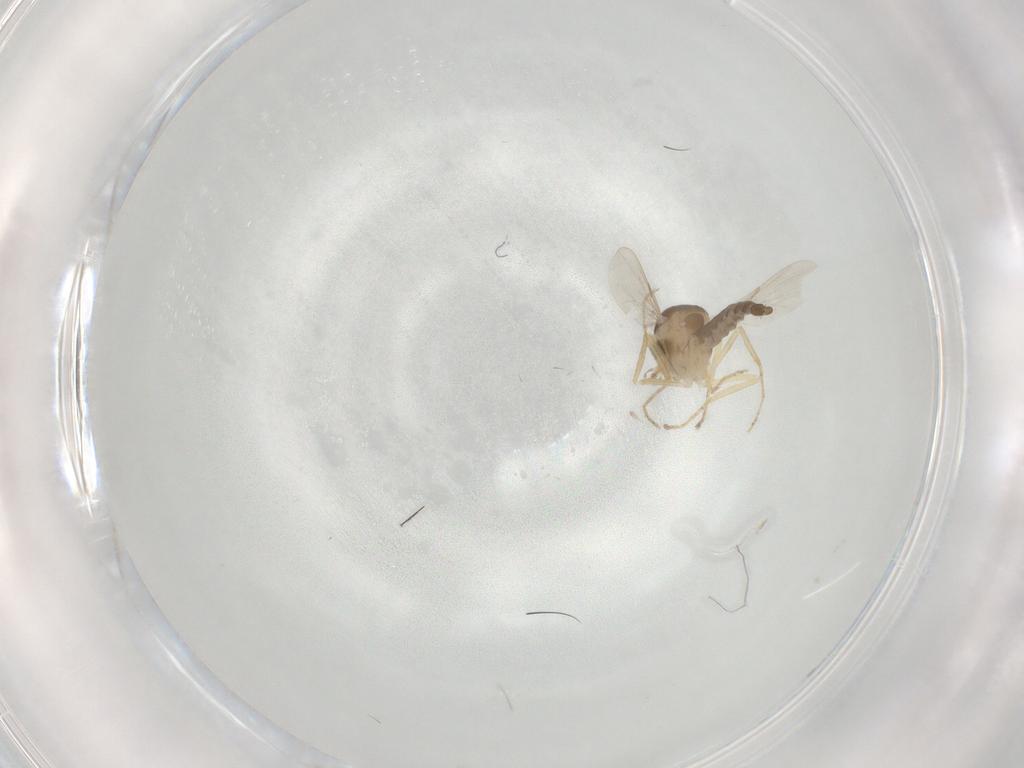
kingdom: Animalia
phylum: Arthropoda
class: Insecta
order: Diptera
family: Ceratopogonidae
